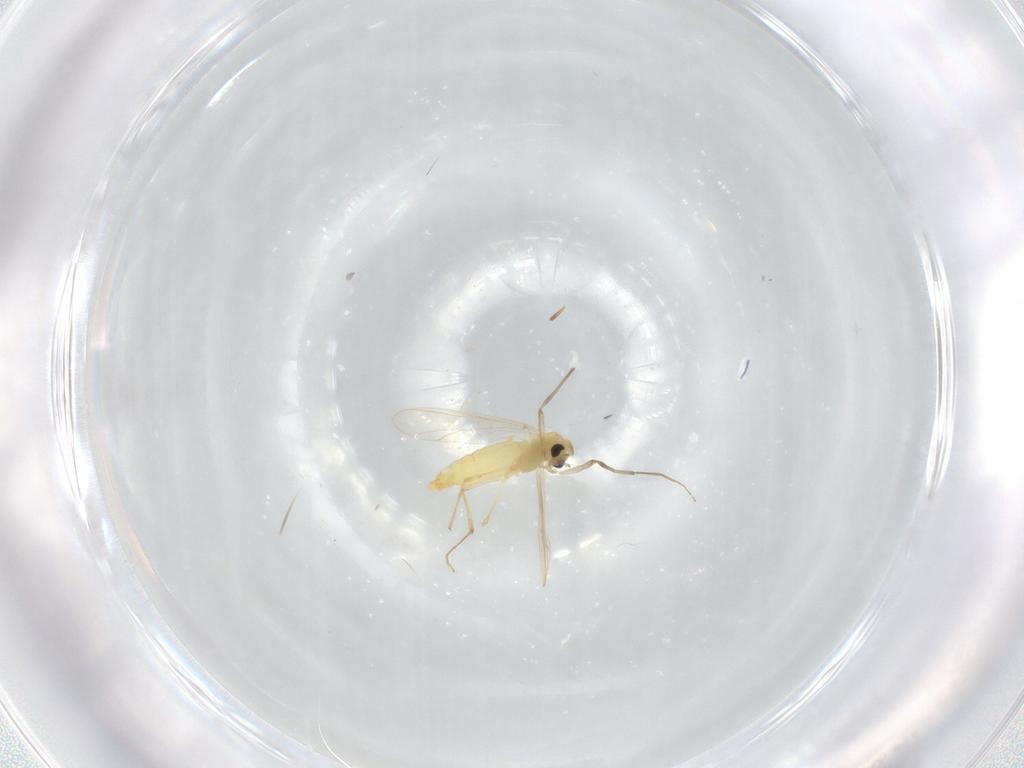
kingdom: Animalia
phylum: Arthropoda
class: Insecta
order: Diptera
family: Chironomidae
